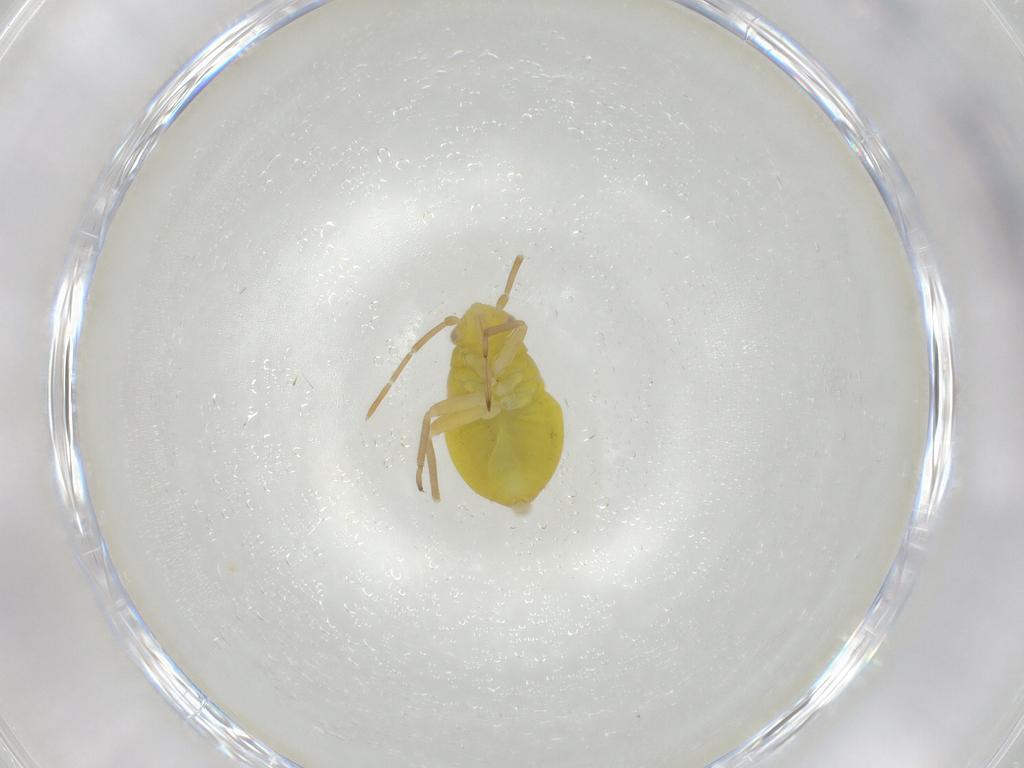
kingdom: Animalia
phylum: Arthropoda
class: Insecta
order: Hemiptera
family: Miridae
